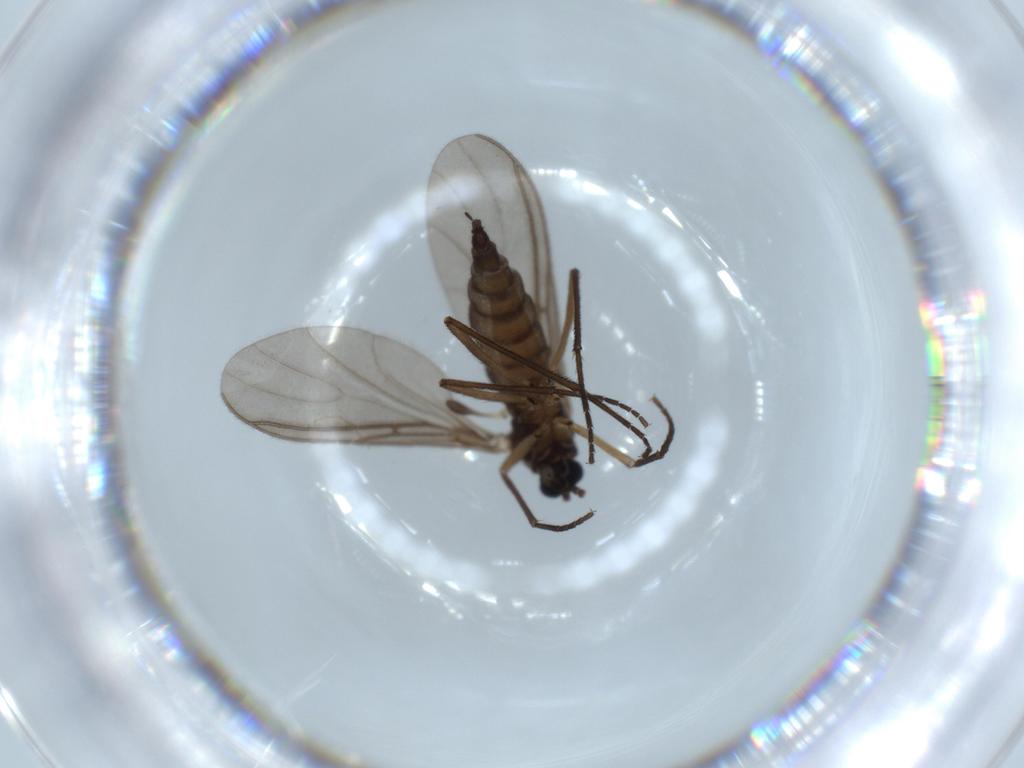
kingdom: Animalia
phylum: Arthropoda
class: Insecta
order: Diptera
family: Sciaridae
